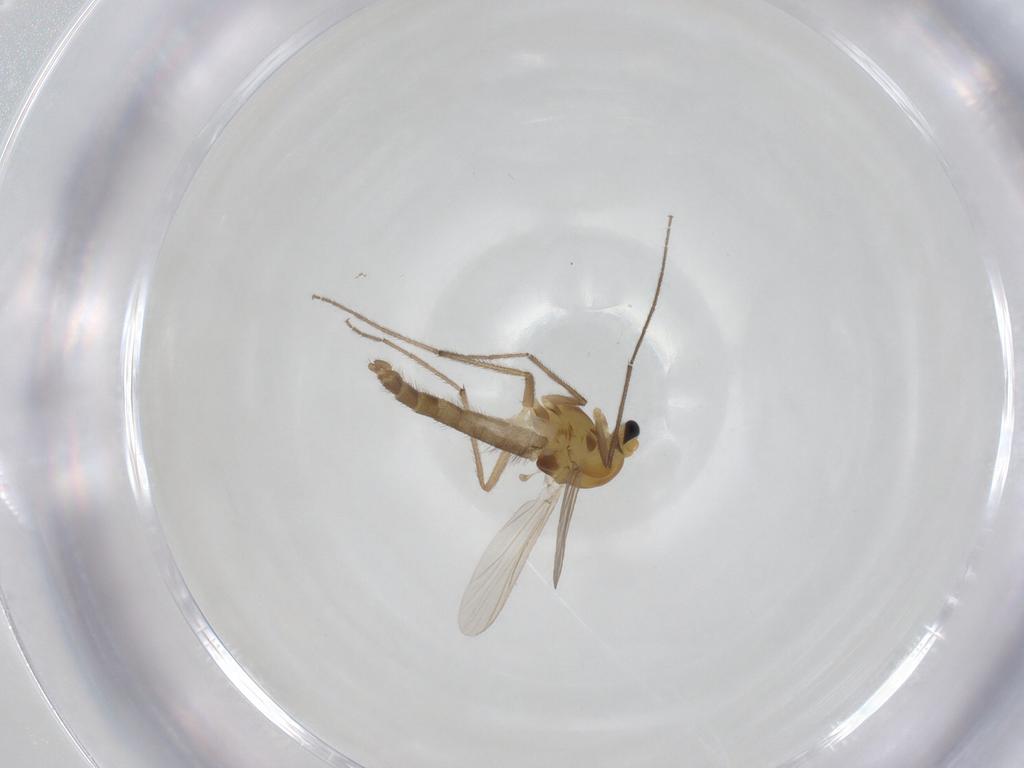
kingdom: Animalia
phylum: Arthropoda
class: Insecta
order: Diptera
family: Chironomidae
